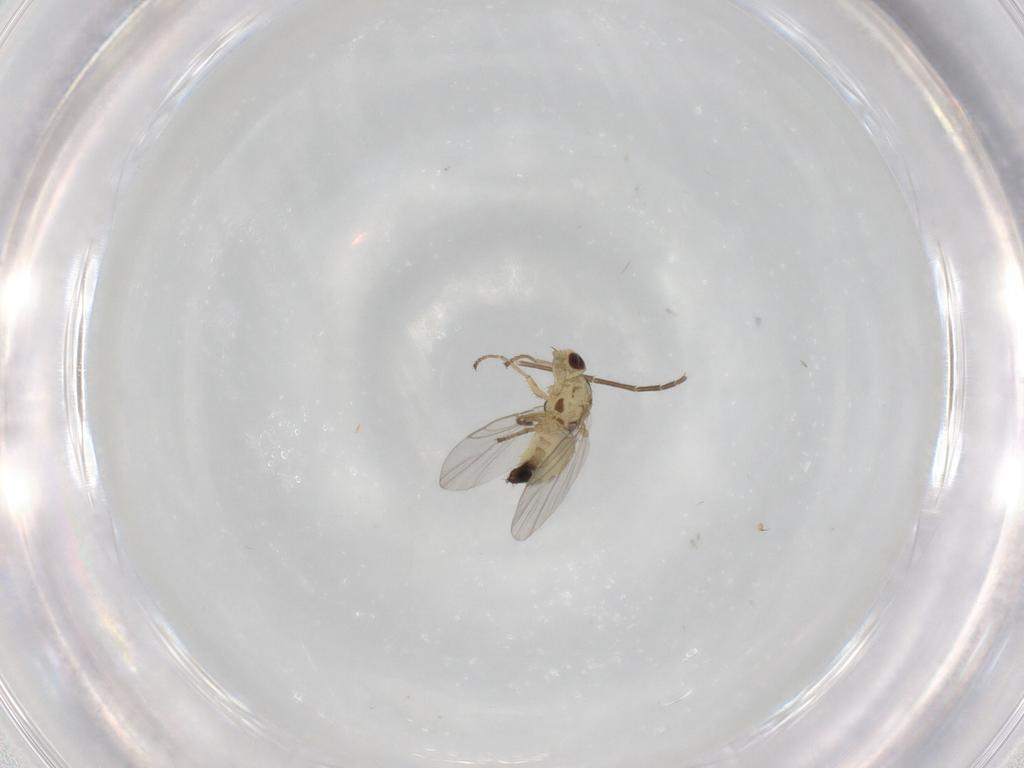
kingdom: Animalia
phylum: Arthropoda
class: Insecta
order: Diptera
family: Agromyzidae
